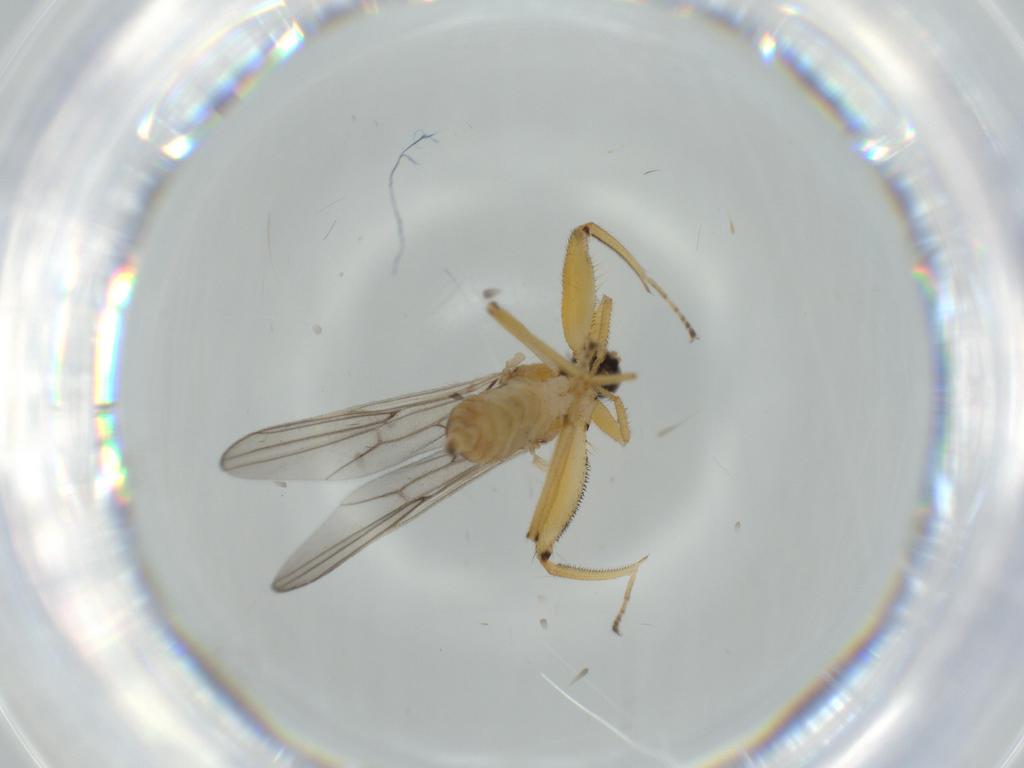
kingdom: Animalia
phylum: Arthropoda
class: Insecta
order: Diptera
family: Hybotidae
